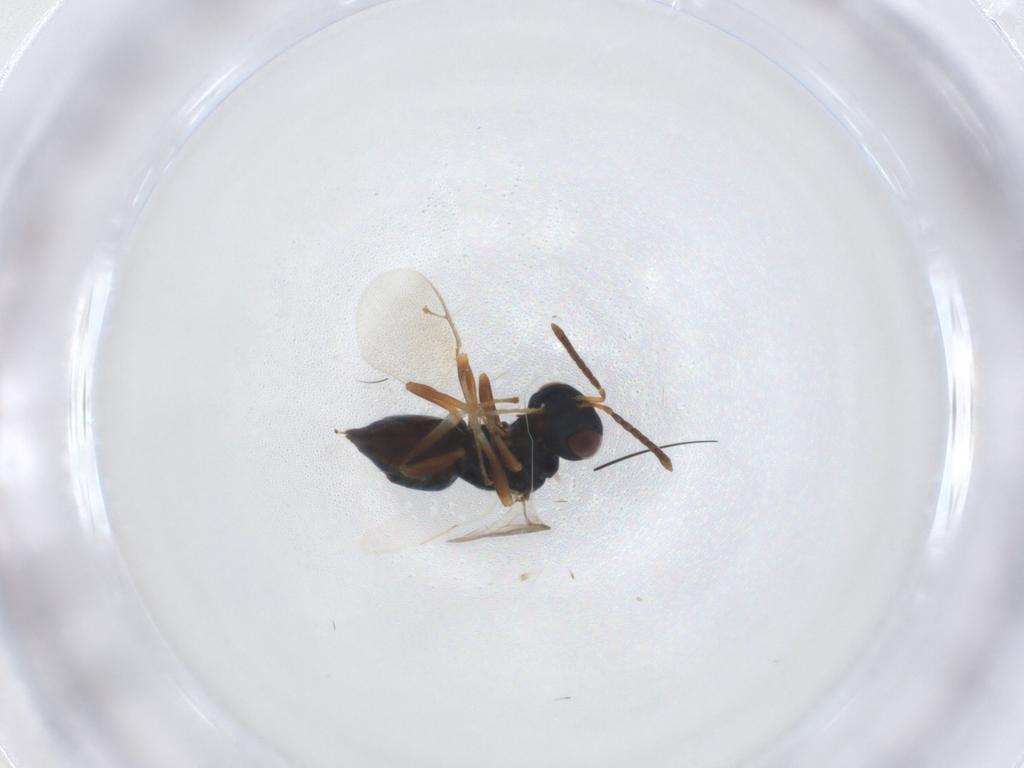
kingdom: Animalia
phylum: Arthropoda
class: Insecta
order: Hymenoptera
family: Pteromalidae
